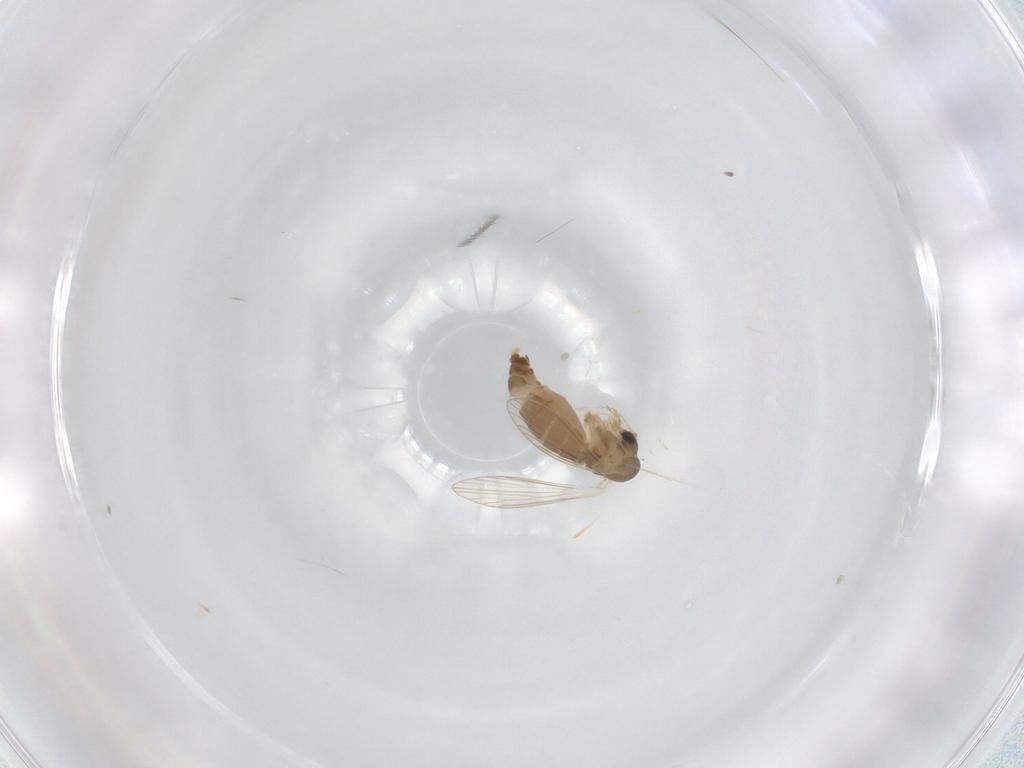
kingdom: Animalia
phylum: Arthropoda
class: Insecta
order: Diptera
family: Psychodidae
